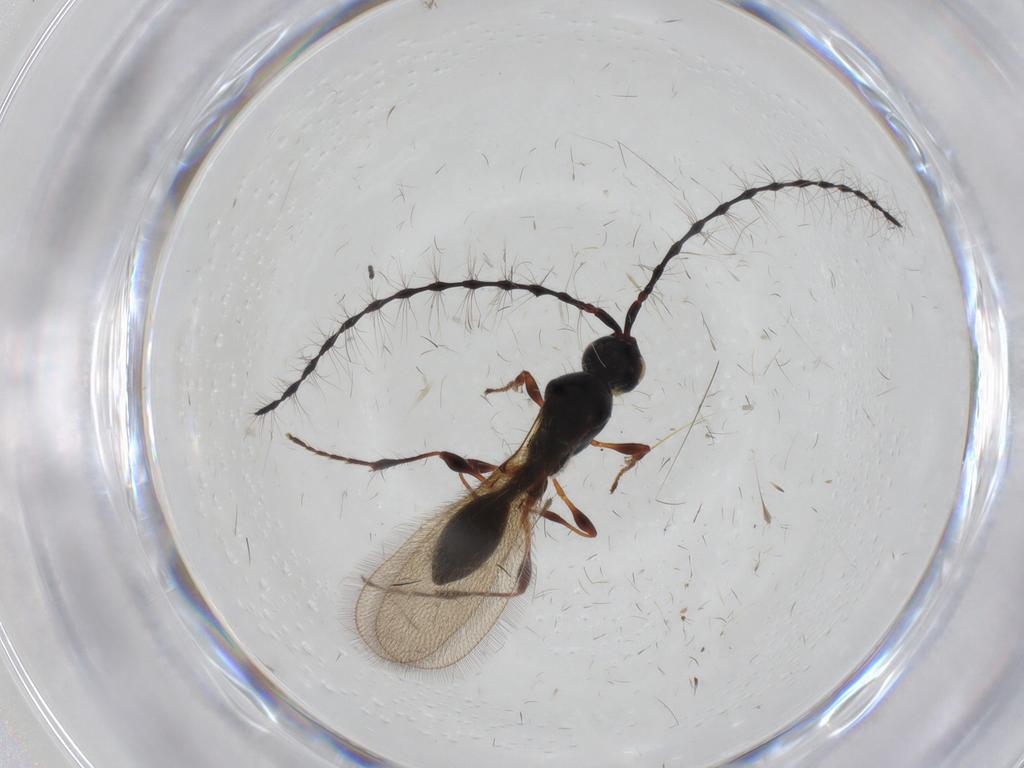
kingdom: Animalia
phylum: Arthropoda
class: Insecta
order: Hymenoptera
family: Diapriidae
